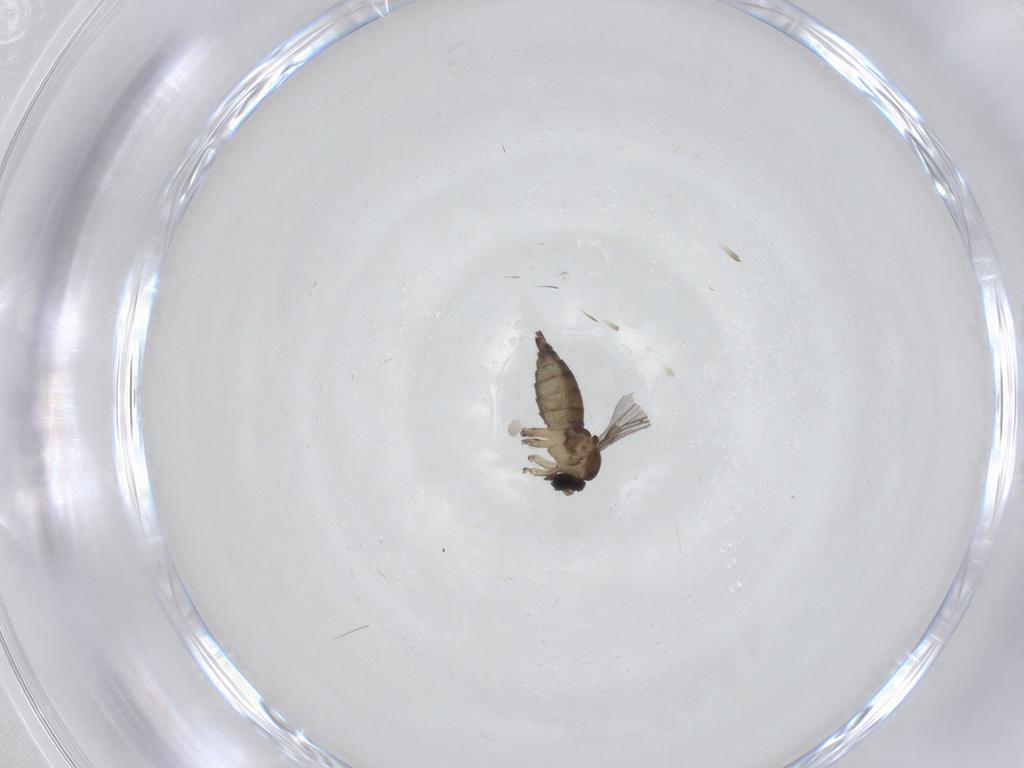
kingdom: Animalia
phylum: Arthropoda
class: Insecta
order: Diptera
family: Sciaridae
